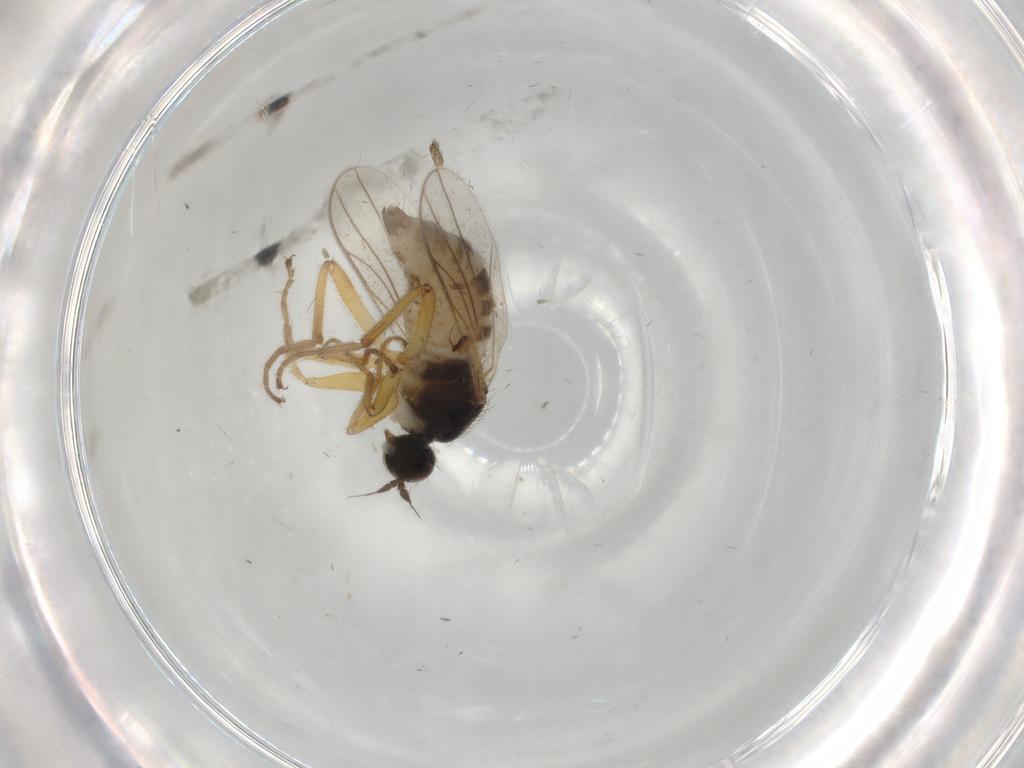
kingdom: Animalia
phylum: Arthropoda
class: Insecta
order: Diptera
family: Hybotidae
